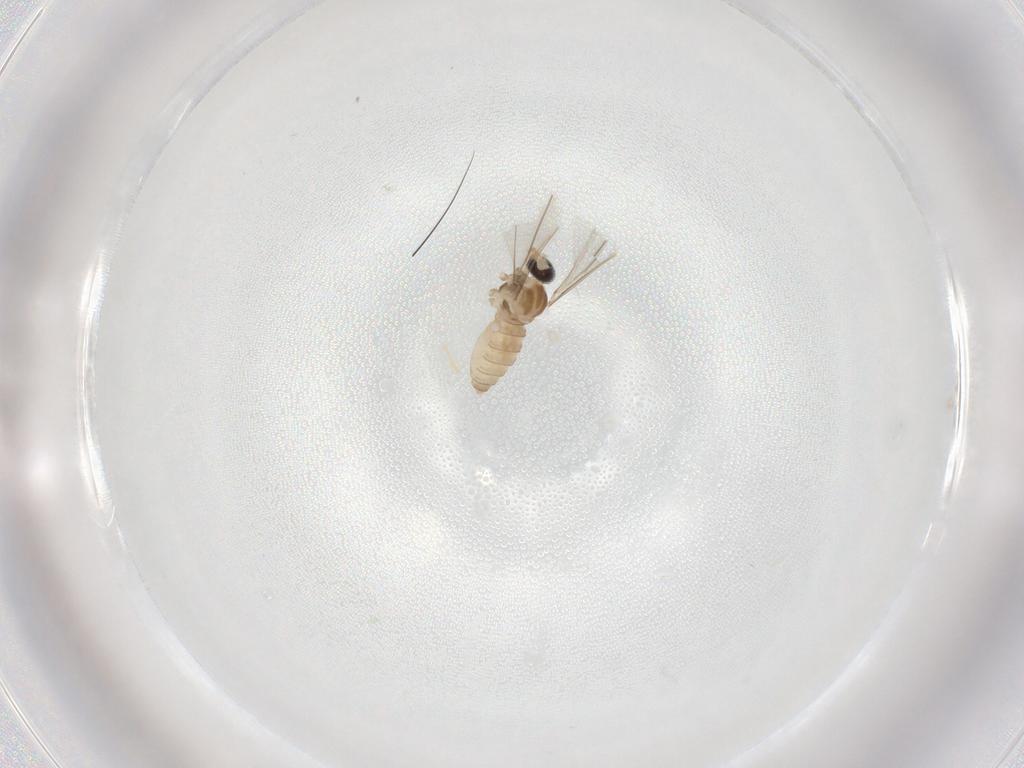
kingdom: Animalia
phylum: Arthropoda
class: Insecta
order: Diptera
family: Cecidomyiidae
